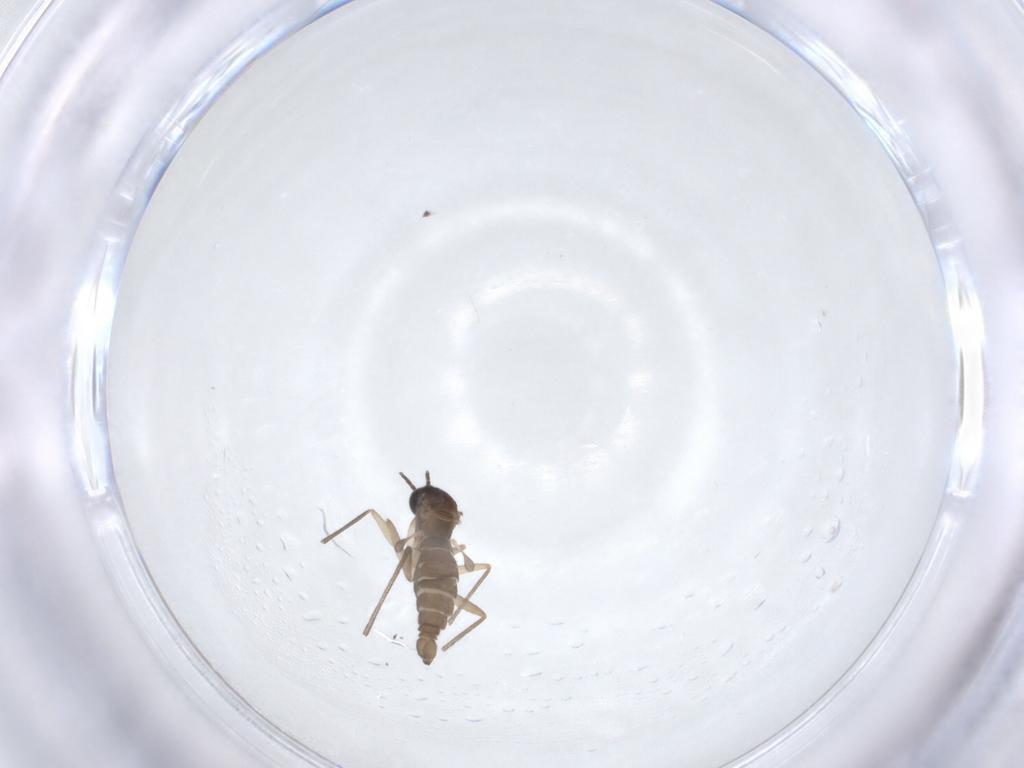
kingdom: Animalia
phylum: Arthropoda
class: Insecta
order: Diptera
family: Sciaridae
